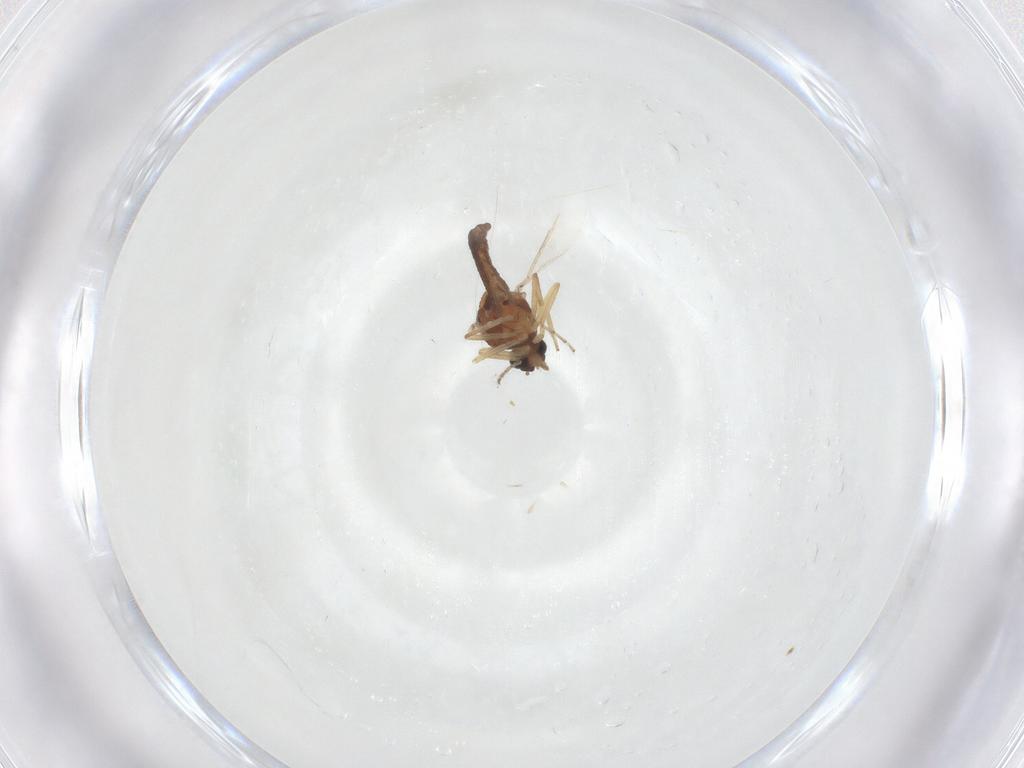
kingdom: Animalia
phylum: Arthropoda
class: Insecta
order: Diptera
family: Ceratopogonidae
